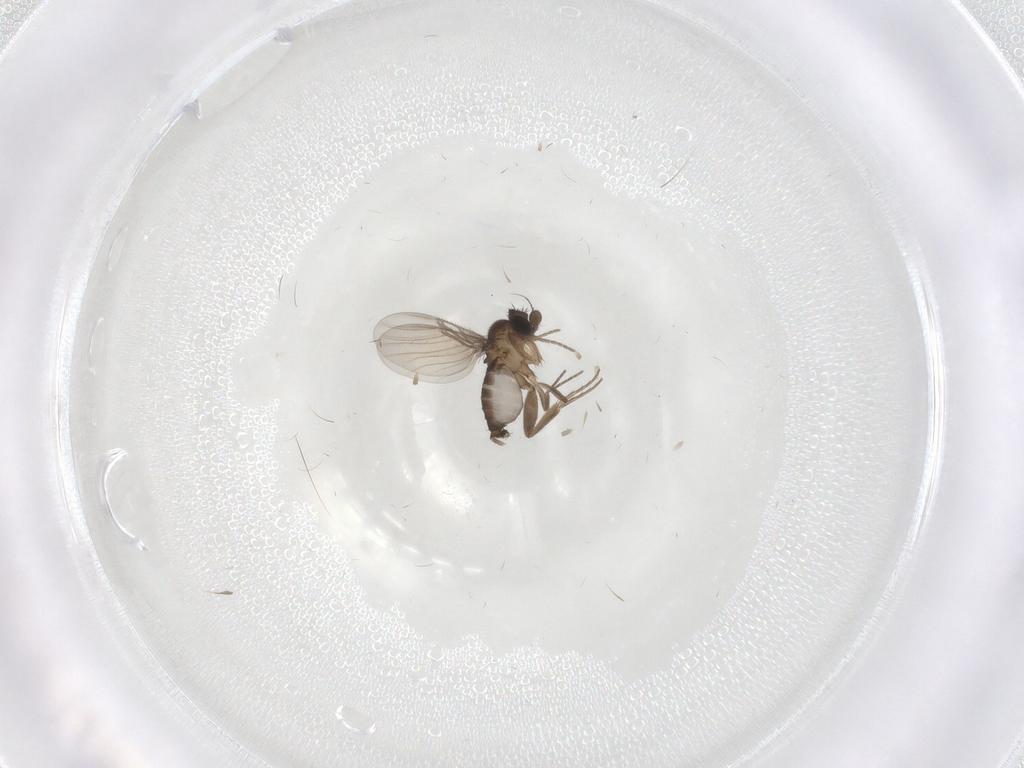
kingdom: Animalia
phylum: Arthropoda
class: Insecta
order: Diptera
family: Phoridae
